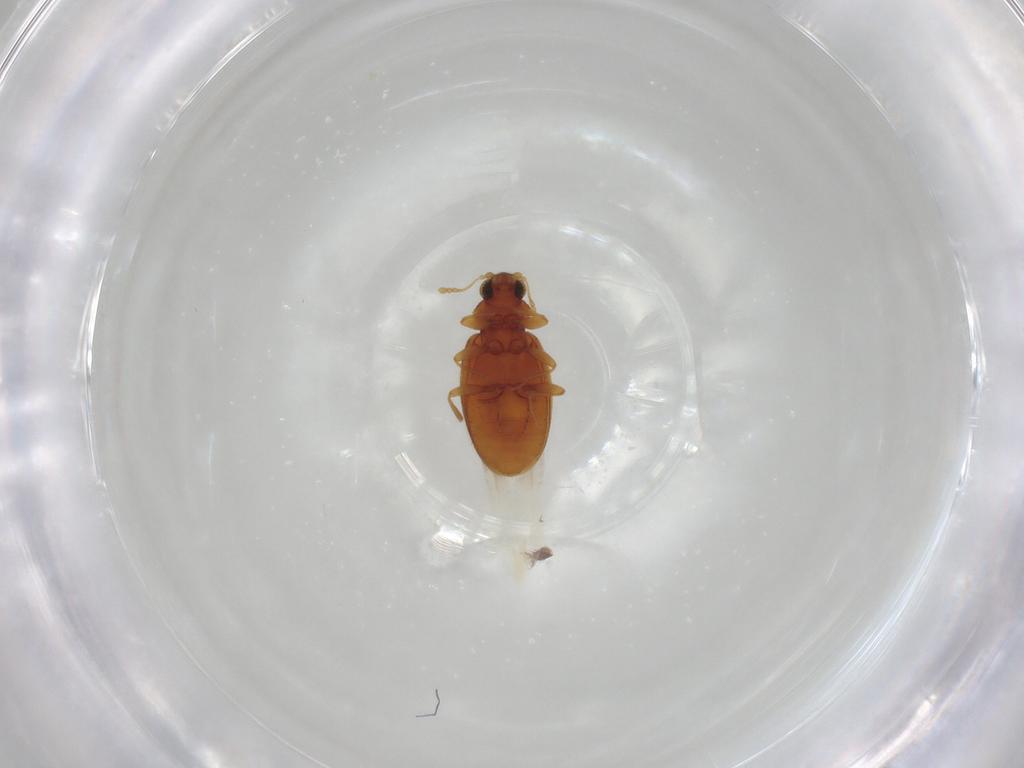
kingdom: Animalia
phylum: Arthropoda
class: Insecta
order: Coleoptera
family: Latridiidae
